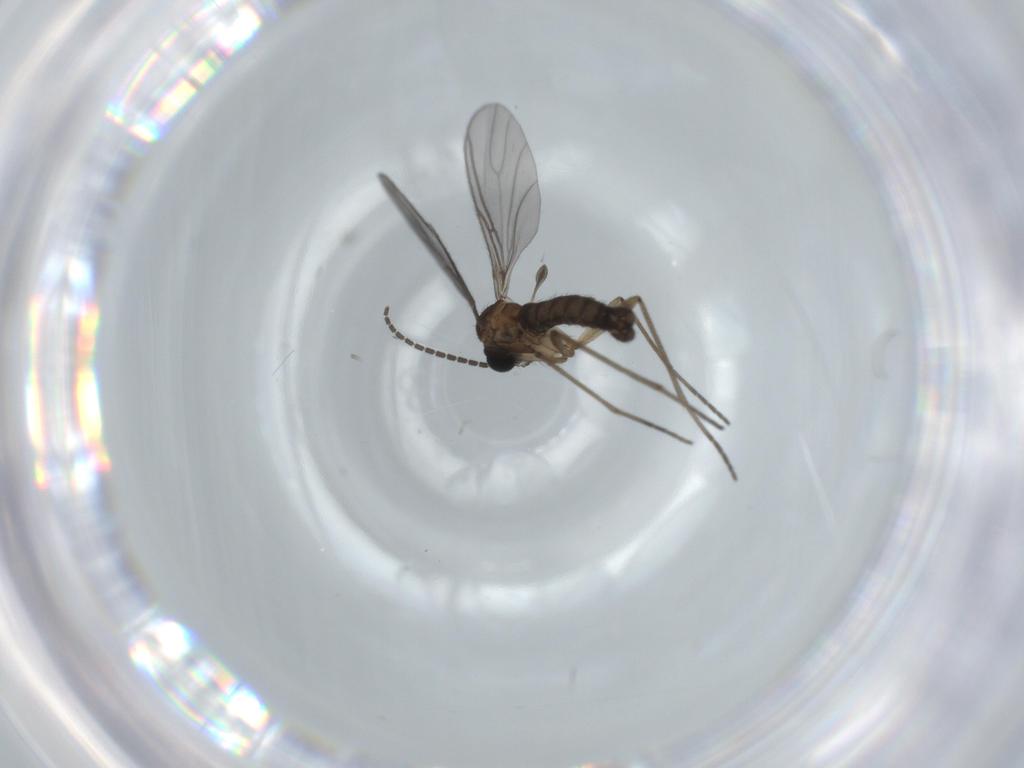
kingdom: Animalia
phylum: Arthropoda
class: Insecta
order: Diptera
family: Sciaridae
